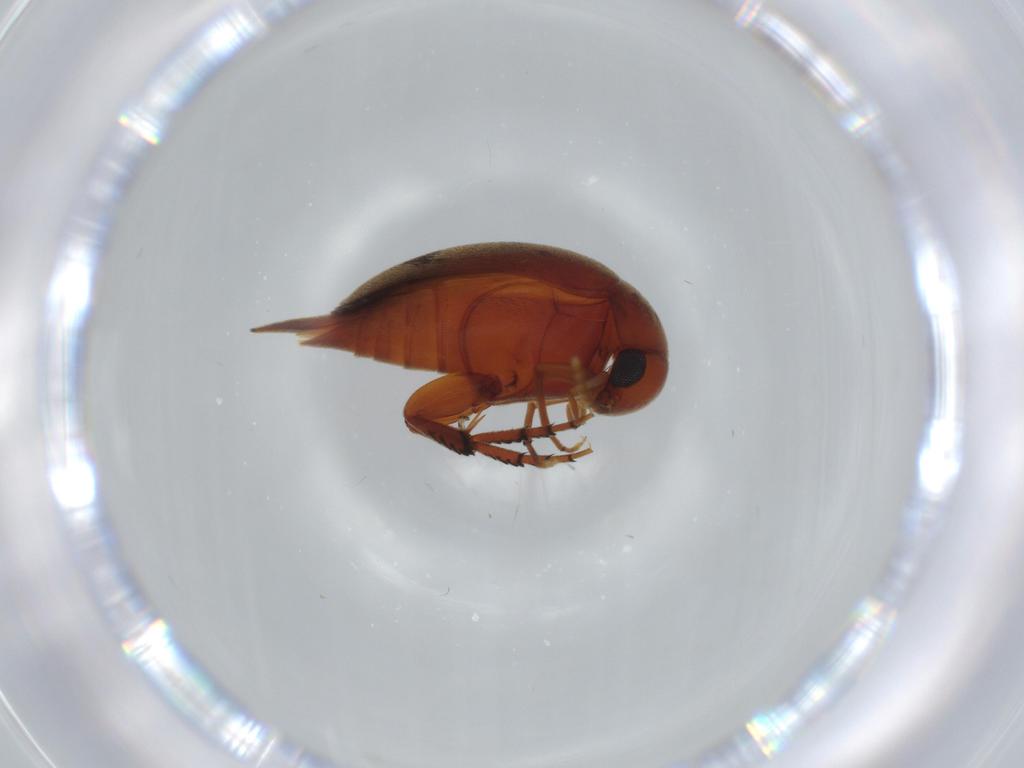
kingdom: Animalia
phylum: Arthropoda
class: Insecta
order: Coleoptera
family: Mordellidae
